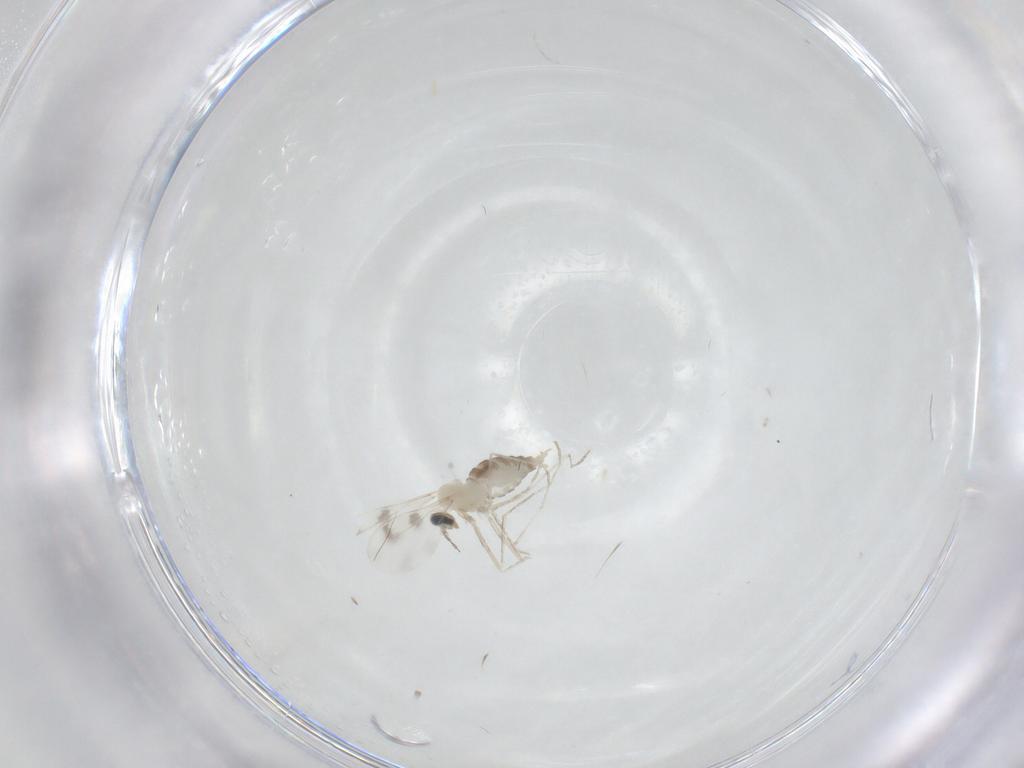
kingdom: Animalia
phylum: Arthropoda
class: Insecta
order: Diptera
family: Cecidomyiidae
